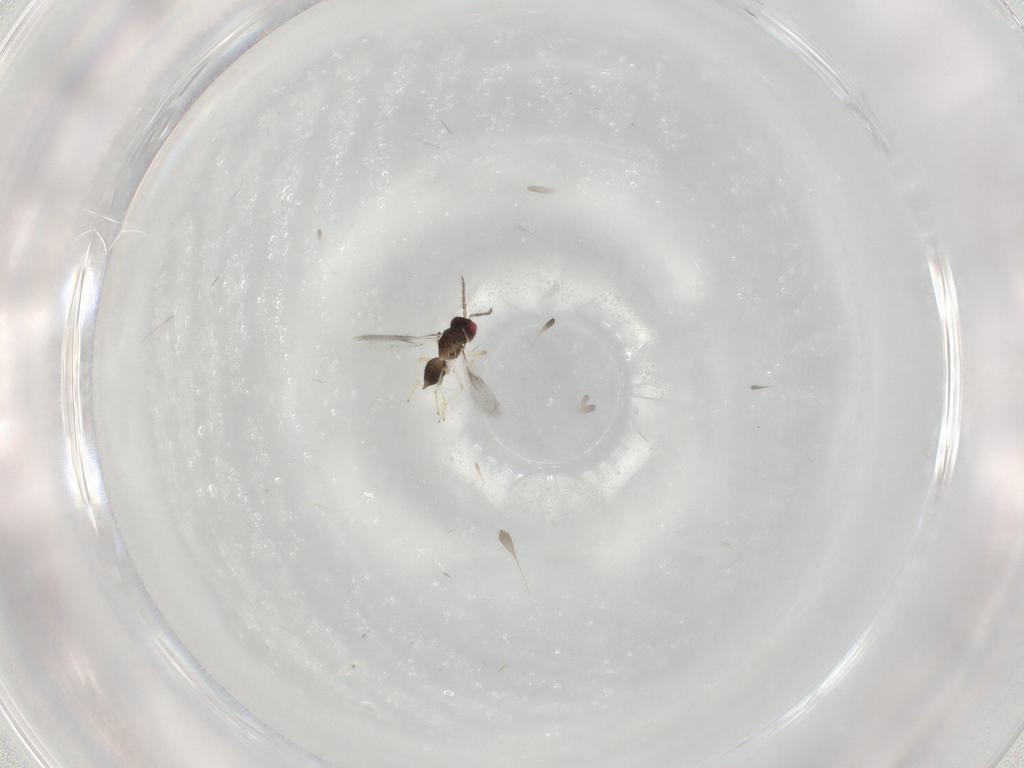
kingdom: Animalia
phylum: Arthropoda
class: Insecta
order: Hymenoptera
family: Eulophidae
